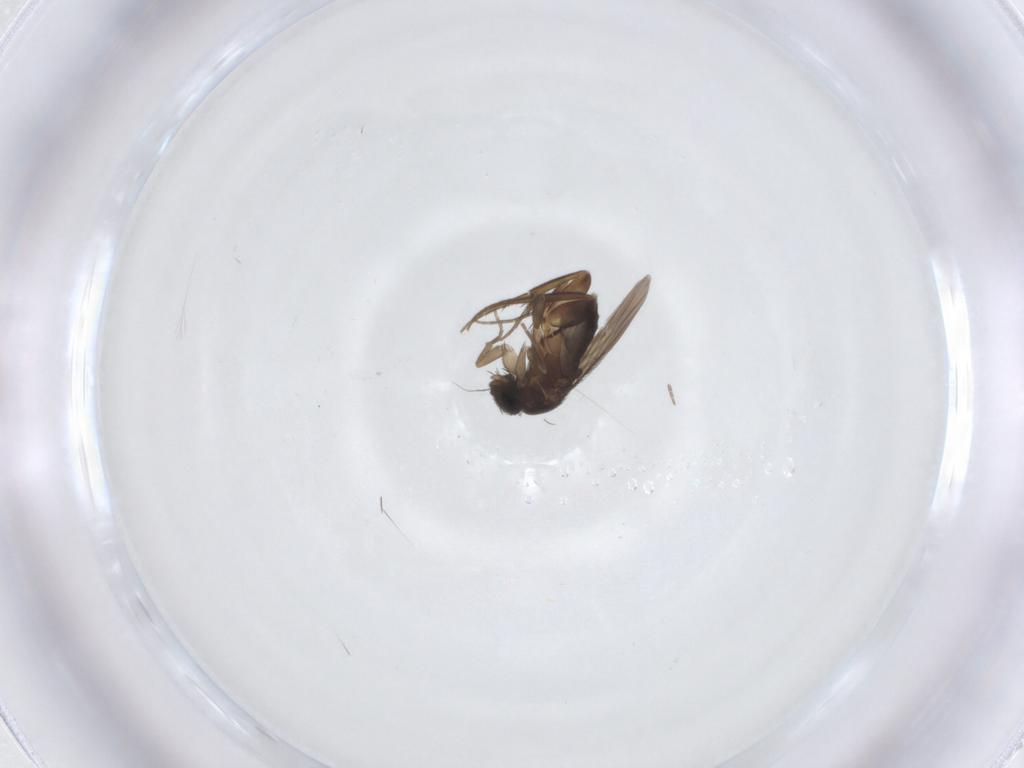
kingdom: Animalia
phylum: Arthropoda
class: Insecta
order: Diptera
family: Phoridae
